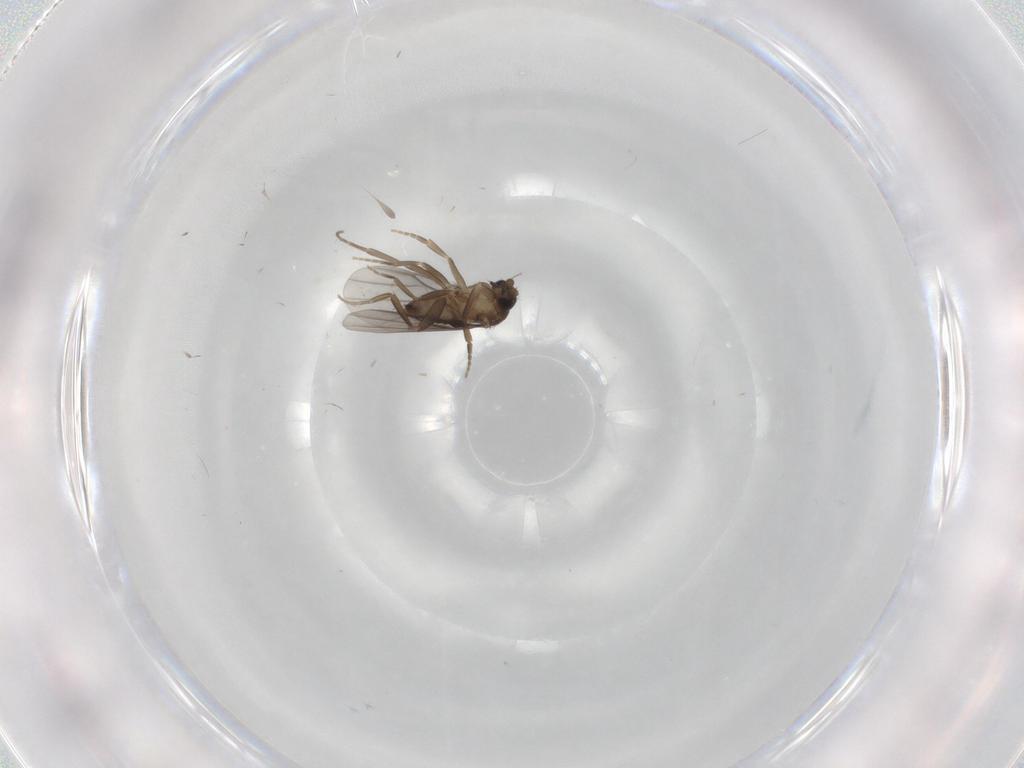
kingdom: Animalia
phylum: Arthropoda
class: Insecta
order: Diptera
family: Phoridae
